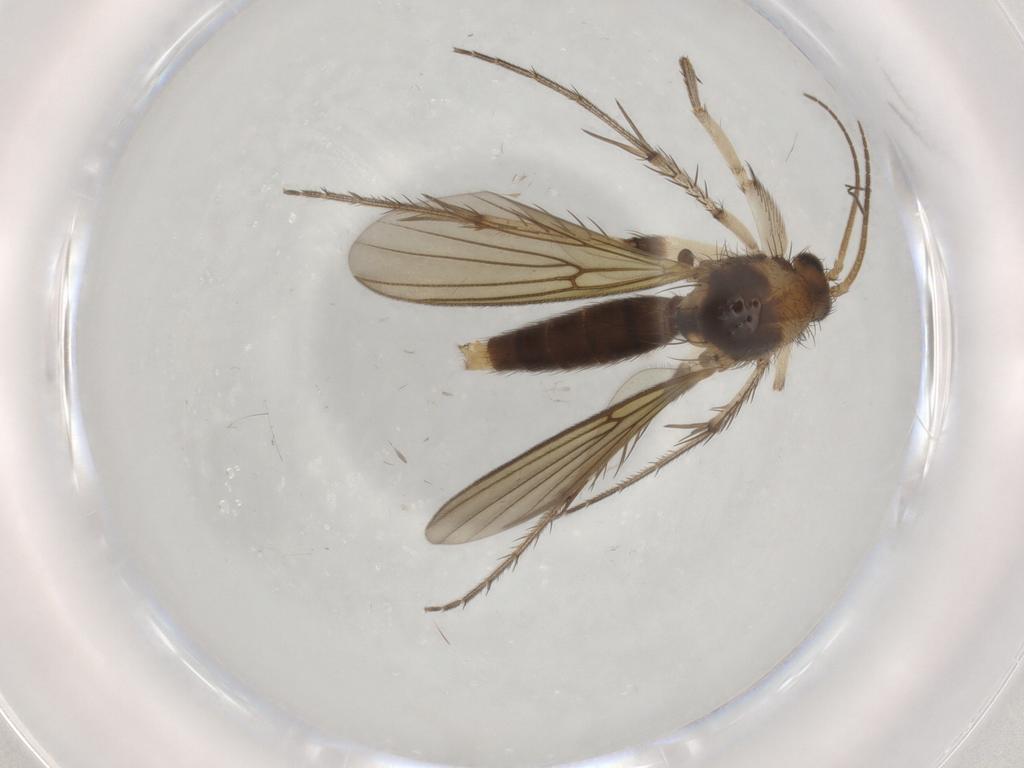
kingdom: Animalia
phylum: Arthropoda
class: Insecta
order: Diptera
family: Mycetophilidae
